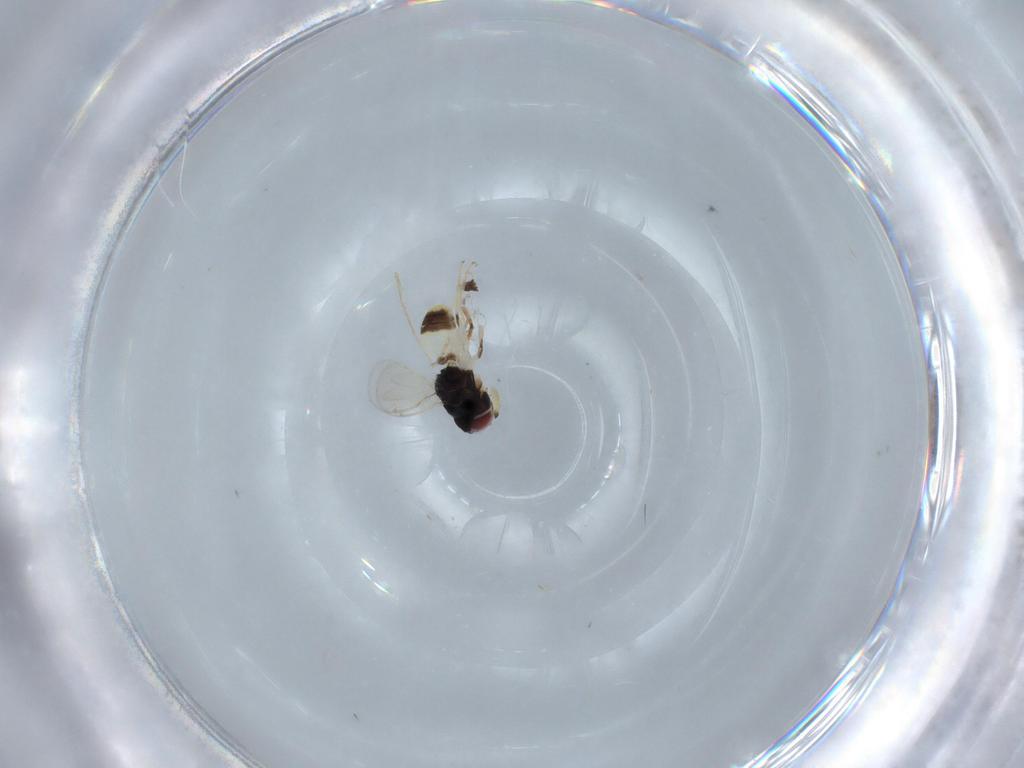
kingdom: Animalia
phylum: Arthropoda
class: Insecta
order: Hymenoptera
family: Encyrtidae
